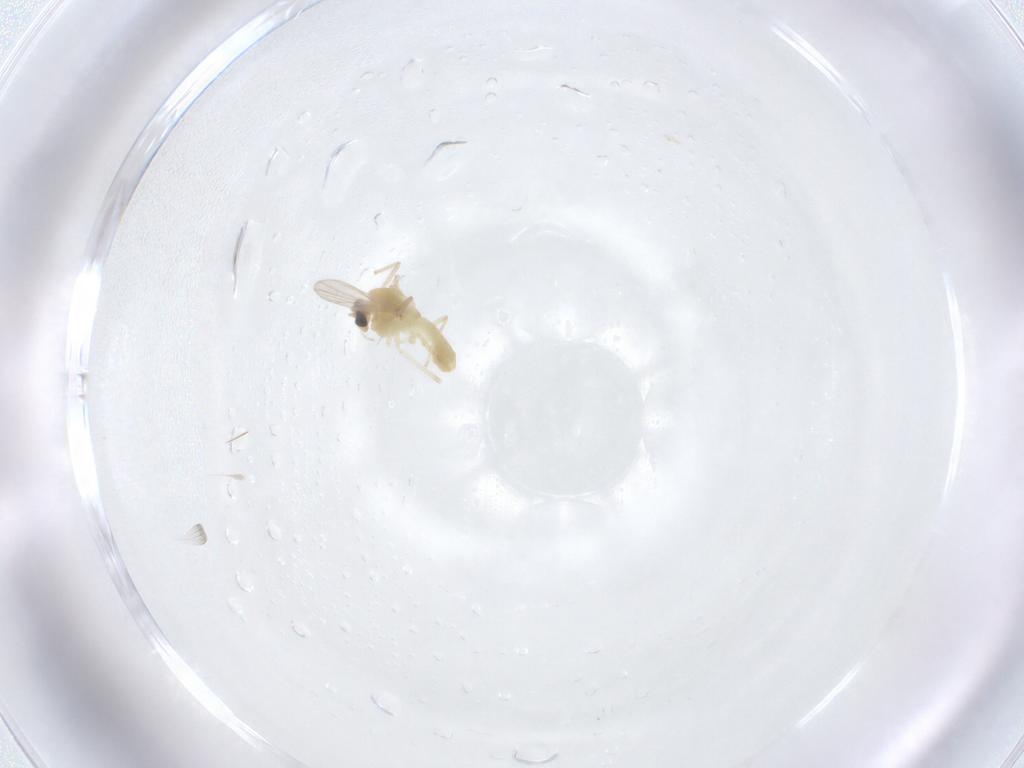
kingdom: Animalia
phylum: Arthropoda
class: Insecta
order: Diptera
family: Chironomidae
